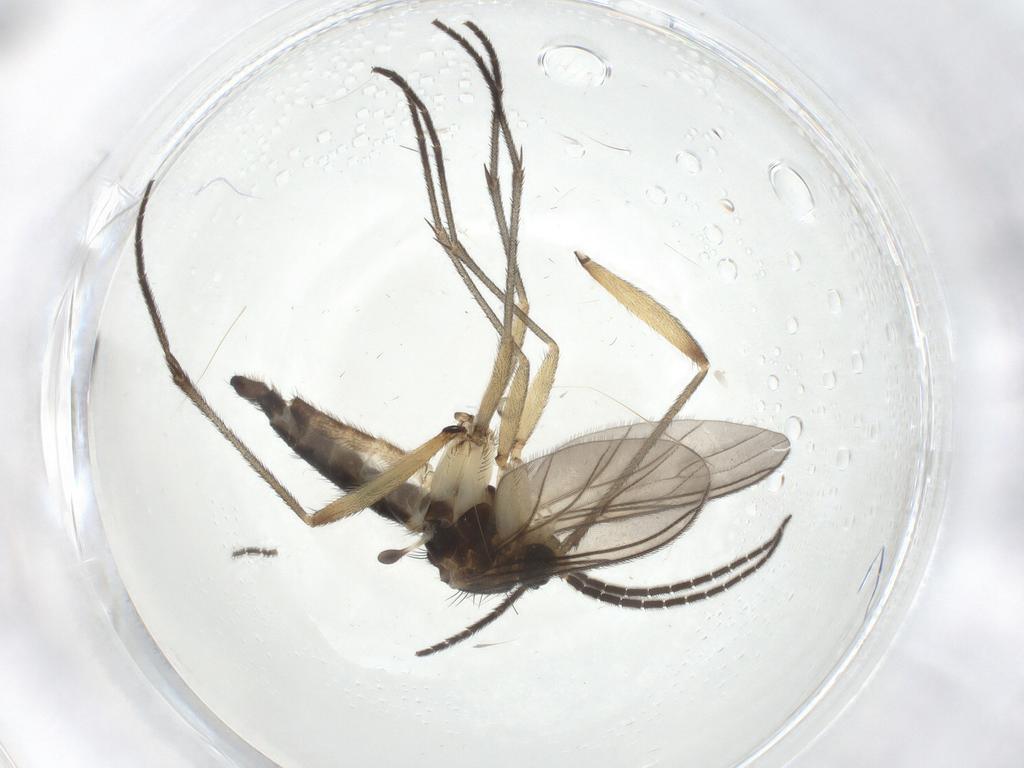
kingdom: Animalia
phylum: Arthropoda
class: Insecta
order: Diptera
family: Sciaridae
